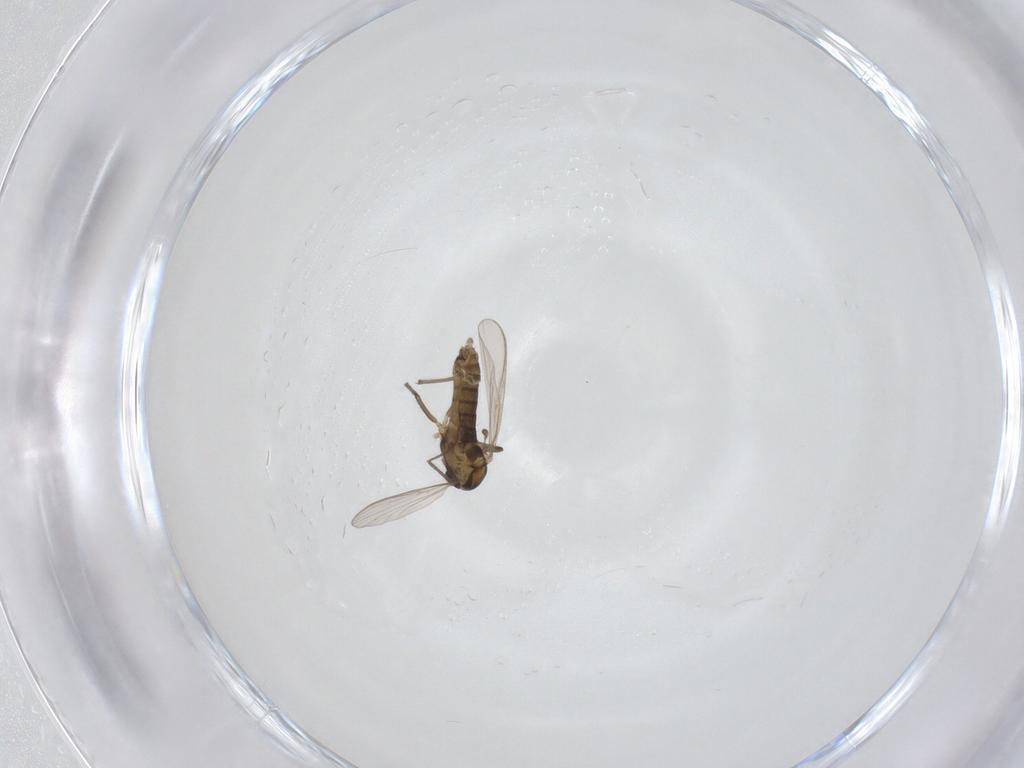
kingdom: Animalia
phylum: Arthropoda
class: Insecta
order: Diptera
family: Chironomidae
